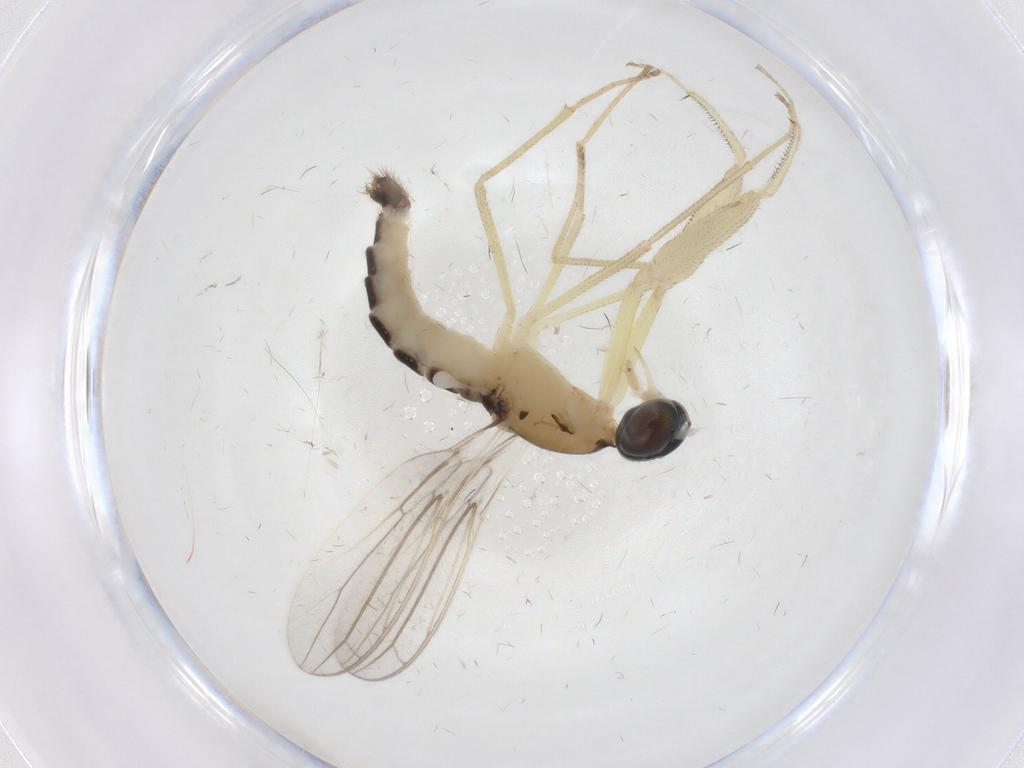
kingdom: Animalia
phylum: Arthropoda
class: Insecta
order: Diptera
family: Empididae
